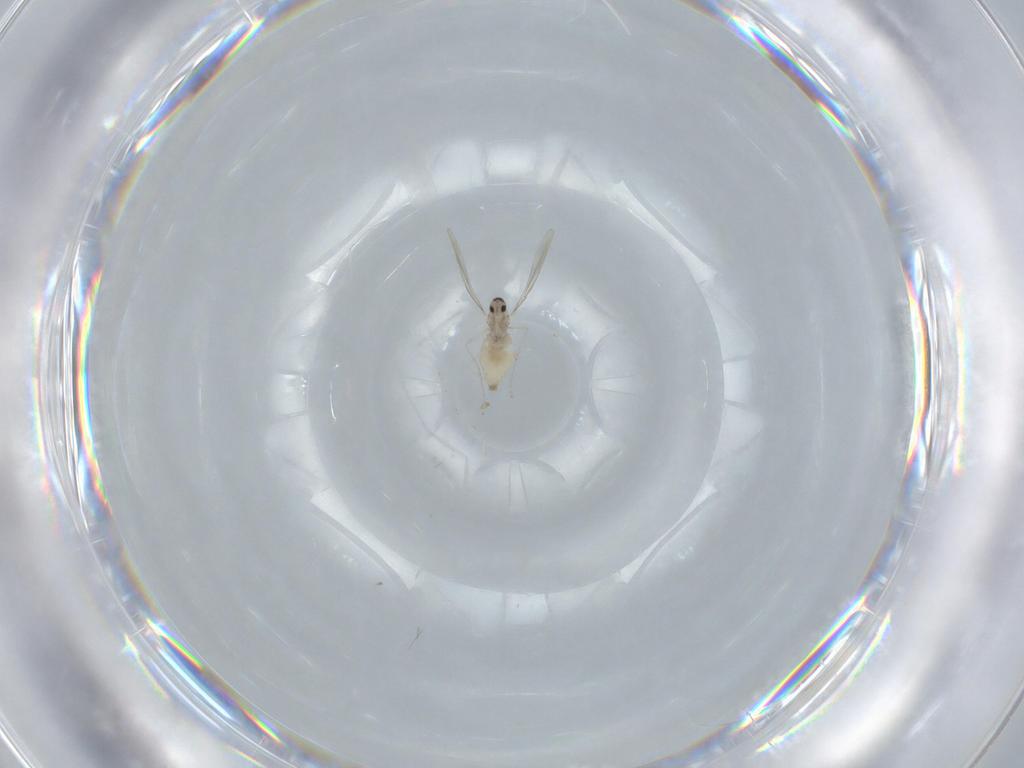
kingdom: Animalia
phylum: Arthropoda
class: Insecta
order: Diptera
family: Cecidomyiidae
